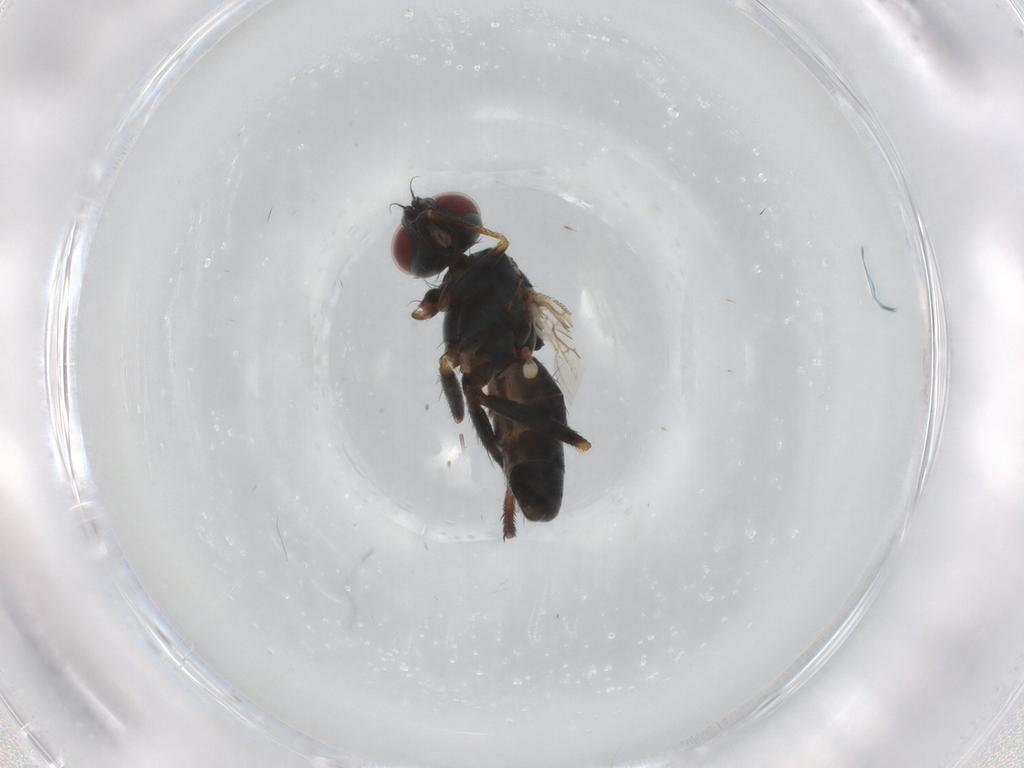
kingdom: Animalia
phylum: Arthropoda
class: Insecta
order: Diptera
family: Muscidae
